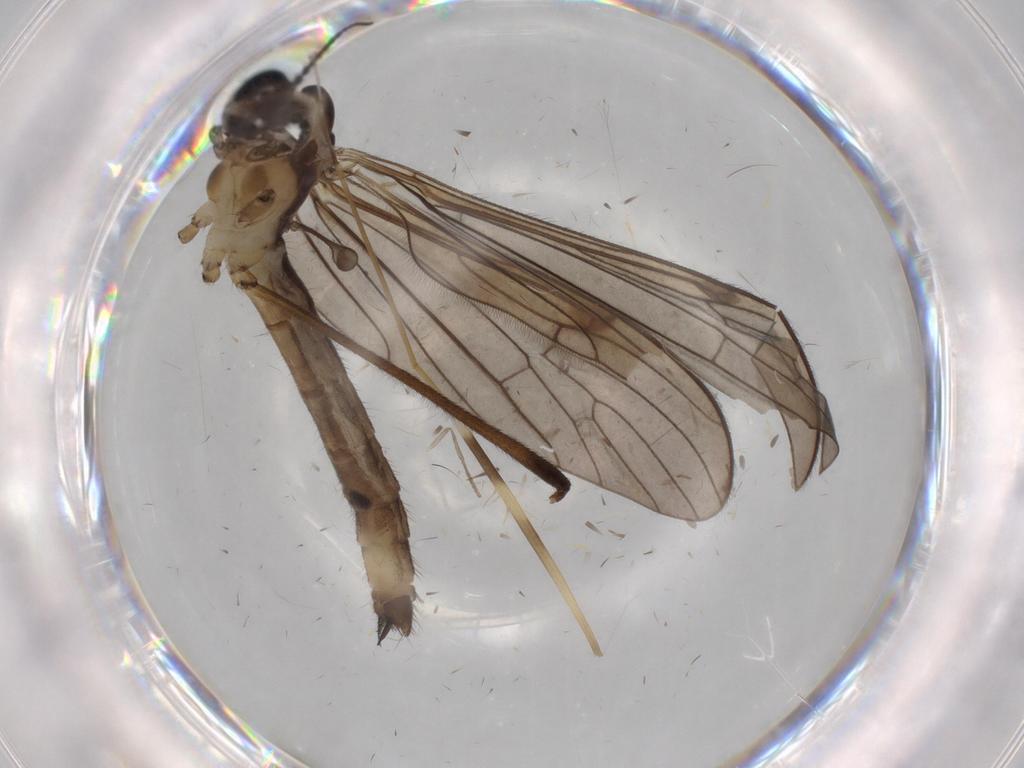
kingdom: Animalia
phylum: Arthropoda
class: Insecta
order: Diptera
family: Limoniidae
